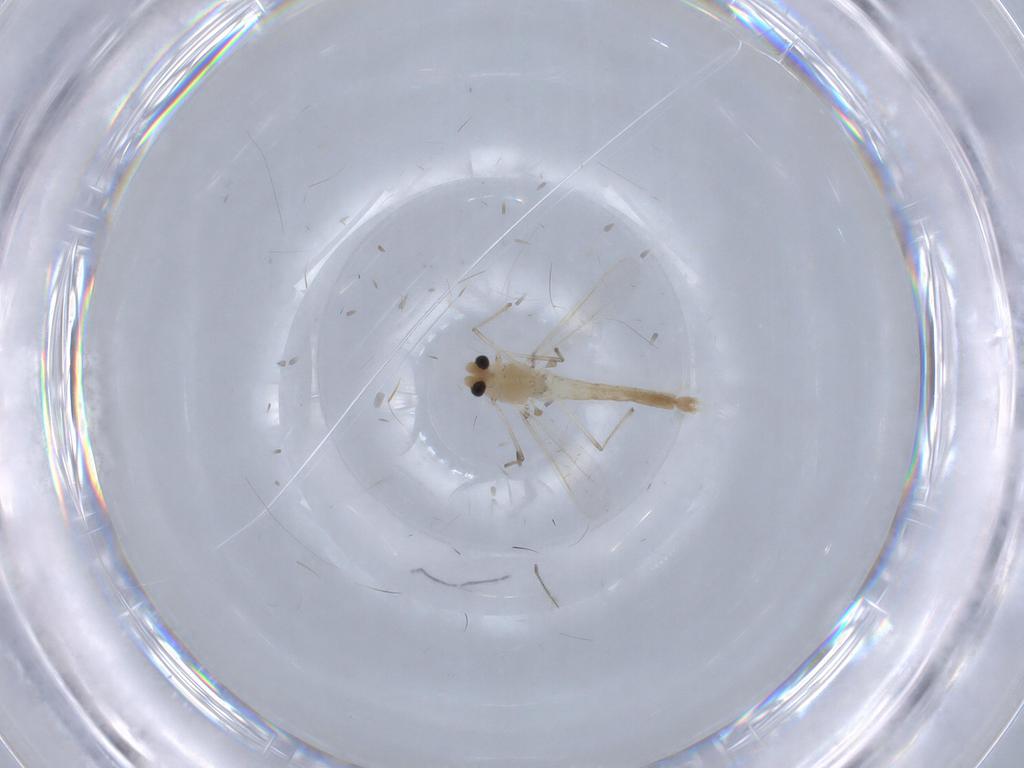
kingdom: Animalia
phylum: Arthropoda
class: Insecta
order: Diptera
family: Chironomidae
